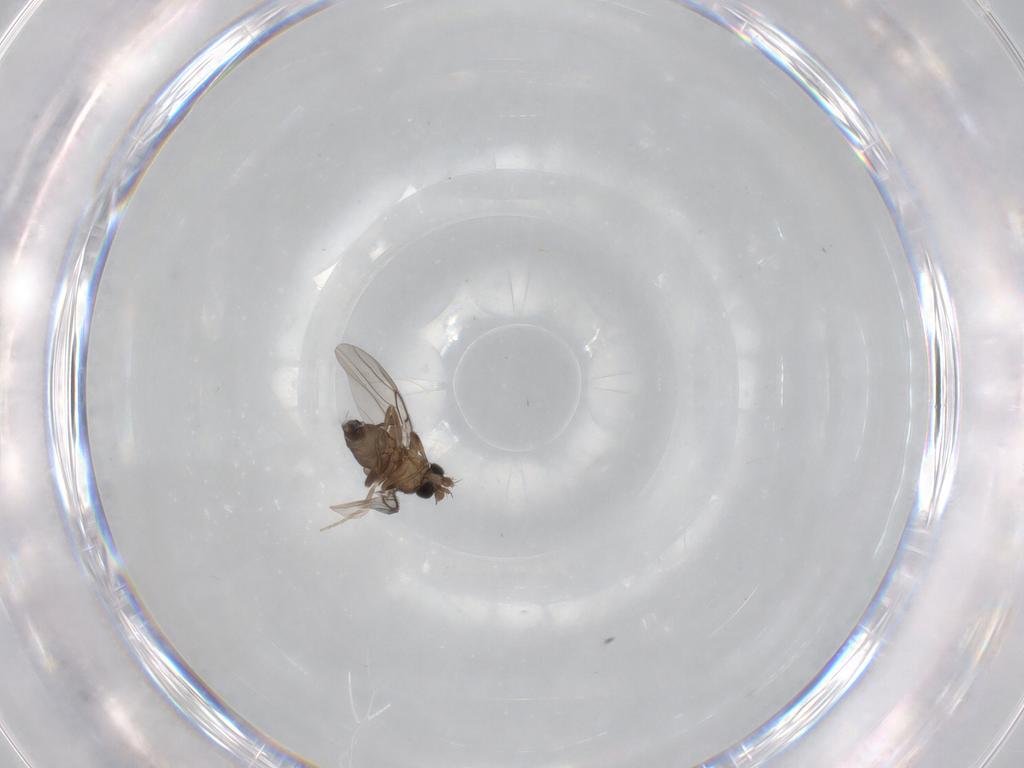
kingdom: Animalia
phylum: Arthropoda
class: Insecta
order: Diptera
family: Phoridae
